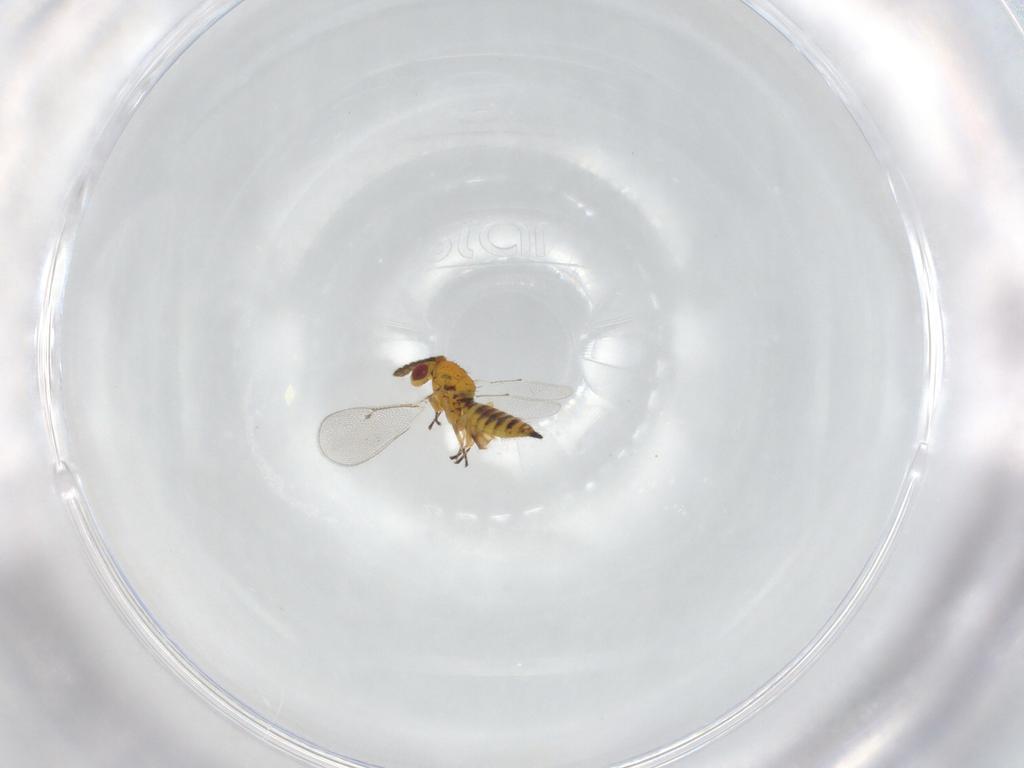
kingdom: Animalia
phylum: Arthropoda
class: Insecta
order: Hymenoptera
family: Eulophidae
